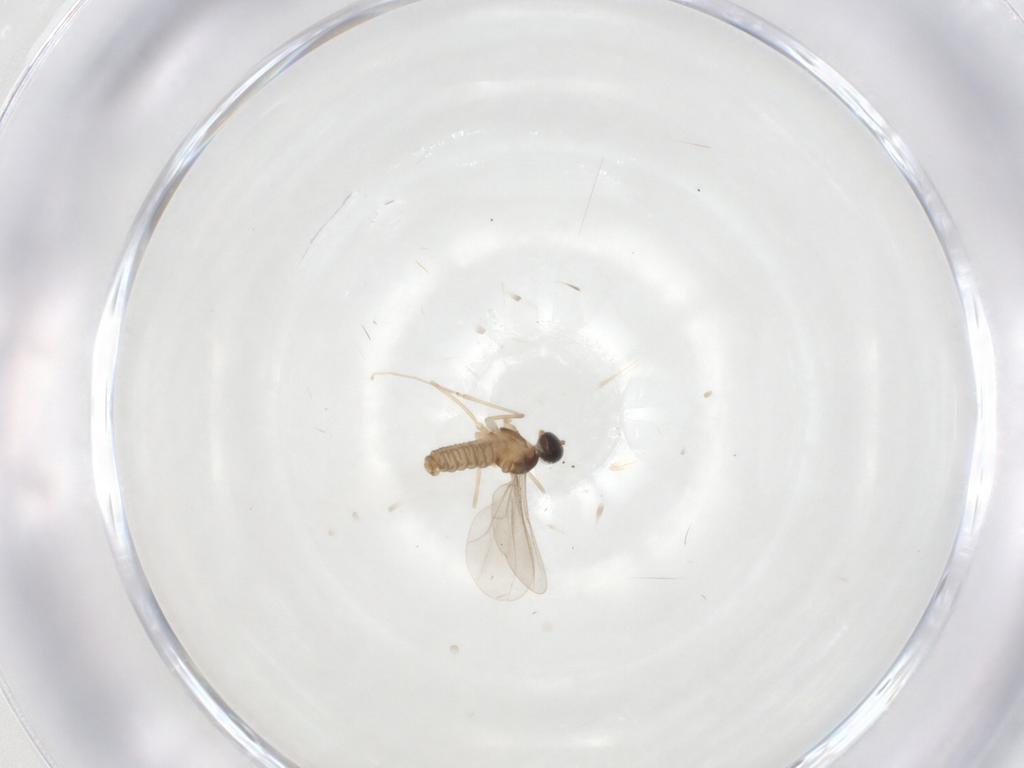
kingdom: Animalia
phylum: Arthropoda
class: Insecta
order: Diptera
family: Cecidomyiidae
